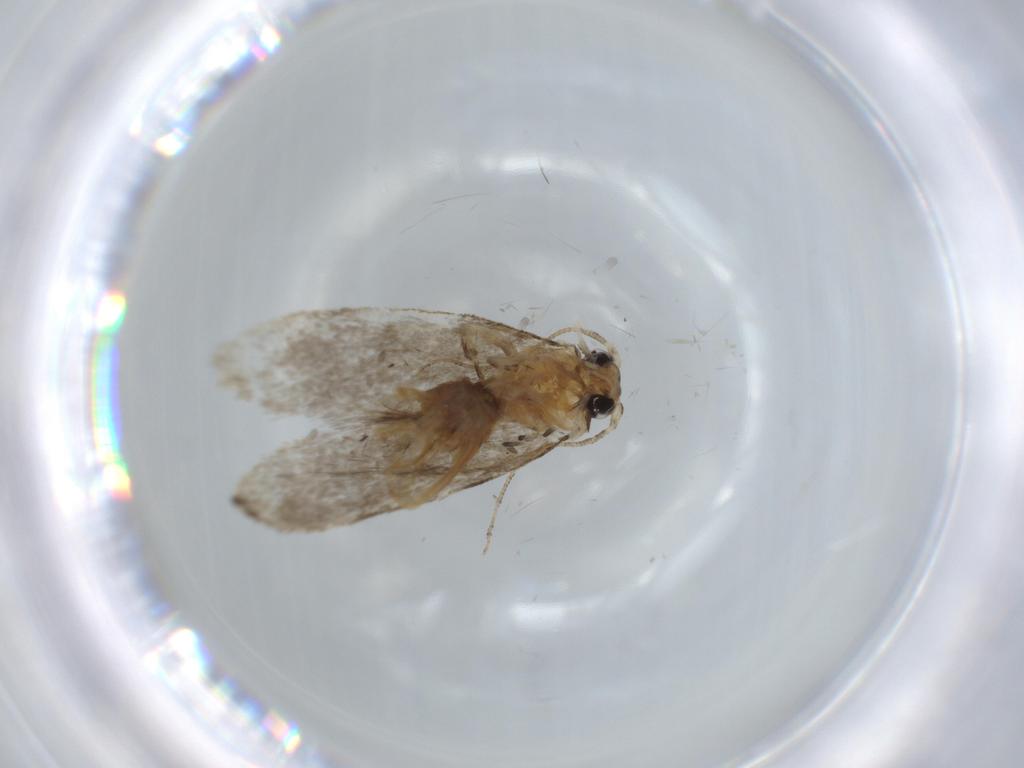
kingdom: Animalia
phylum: Arthropoda
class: Insecta
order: Lepidoptera
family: Tineidae
